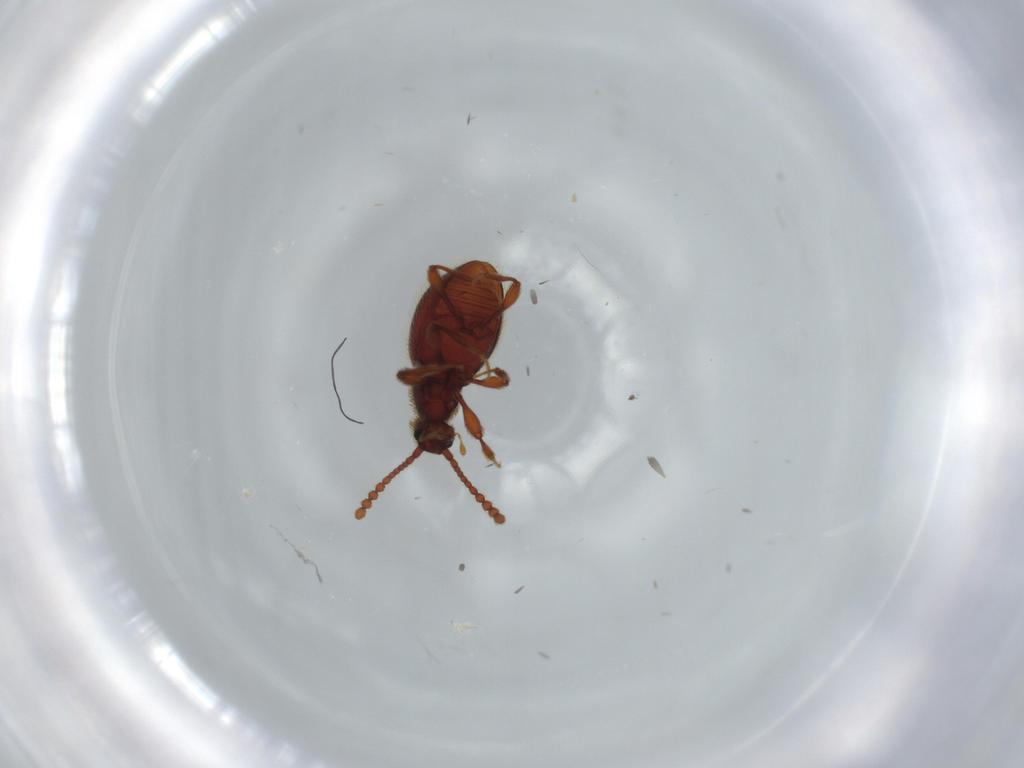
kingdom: Animalia
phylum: Arthropoda
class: Insecta
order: Coleoptera
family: Staphylinidae
